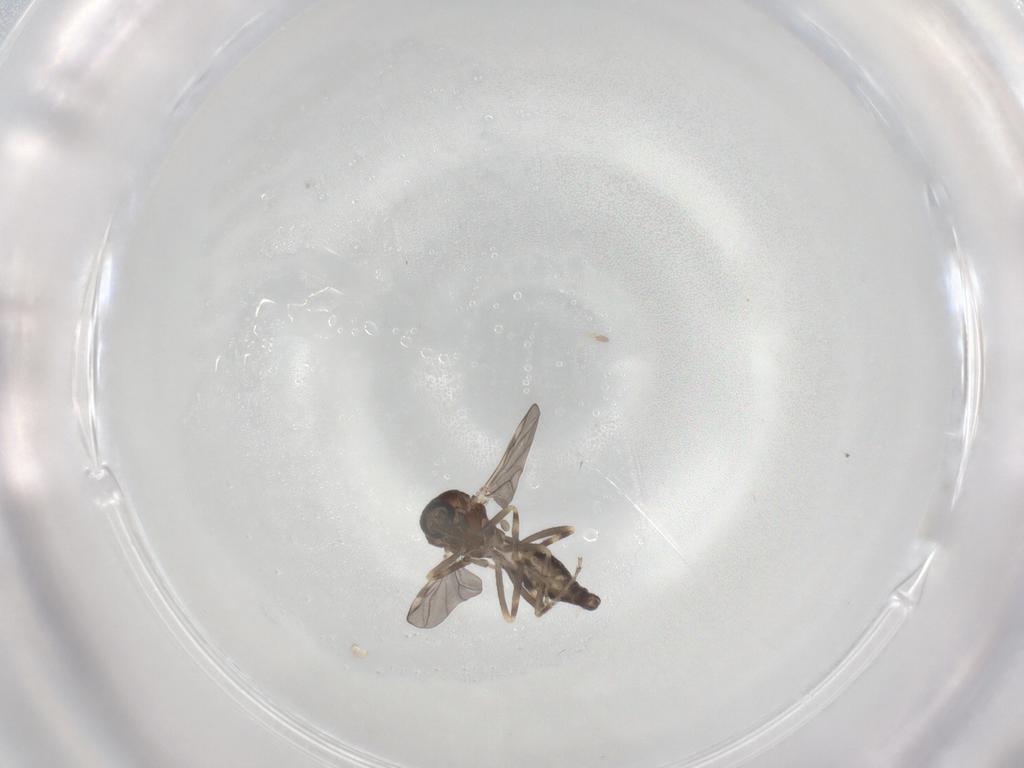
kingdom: Animalia
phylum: Arthropoda
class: Insecta
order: Diptera
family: Ceratopogonidae
